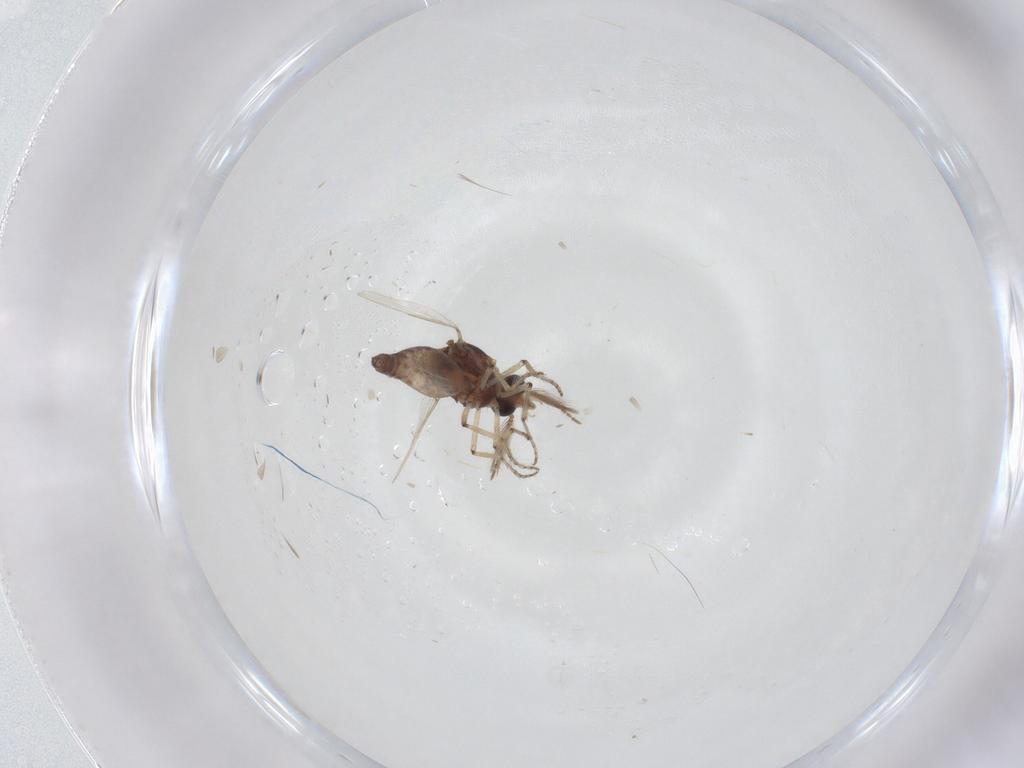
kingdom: Animalia
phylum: Arthropoda
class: Insecta
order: Diptera
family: Ceratopogonidae
